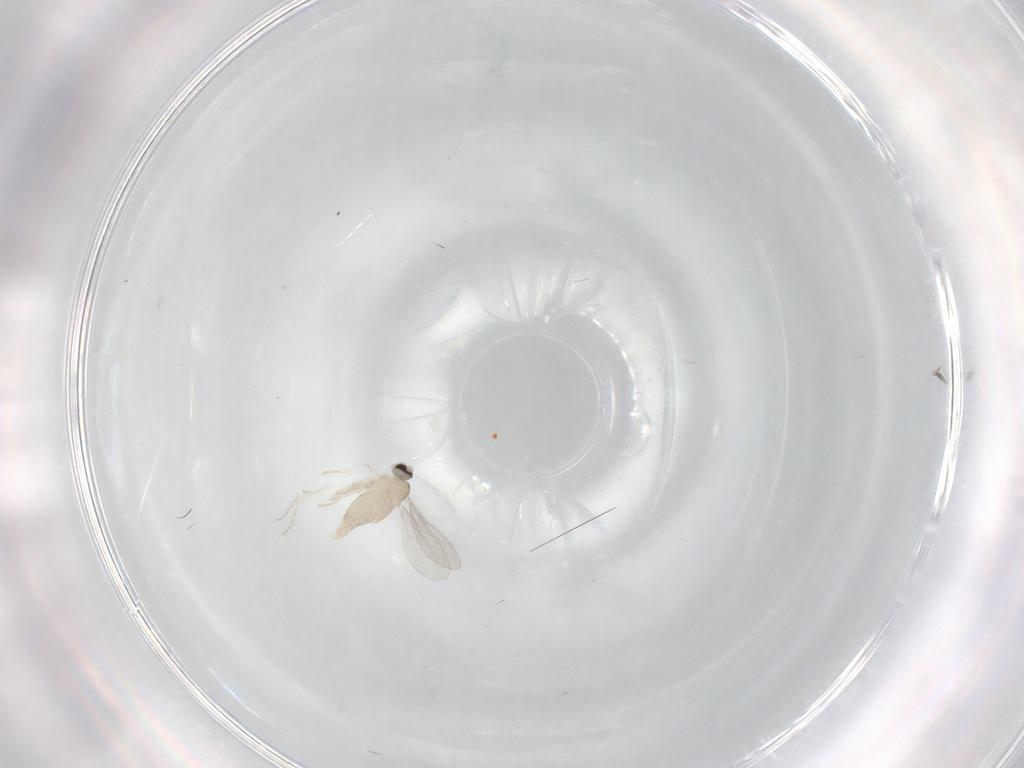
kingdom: Animalia
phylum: Arthropoda
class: Insecta
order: Diptera
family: Cecidomyiidae
